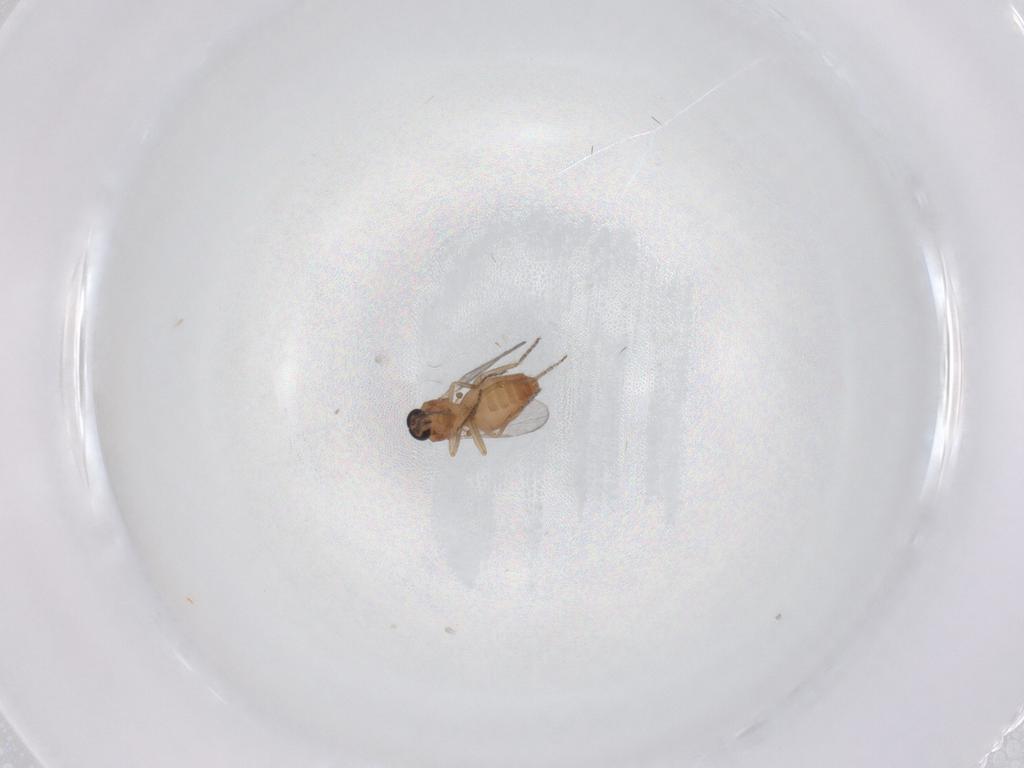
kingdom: Animalia
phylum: Arthropoda
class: Insecta
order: Diptera
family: Ceratopogonidae
